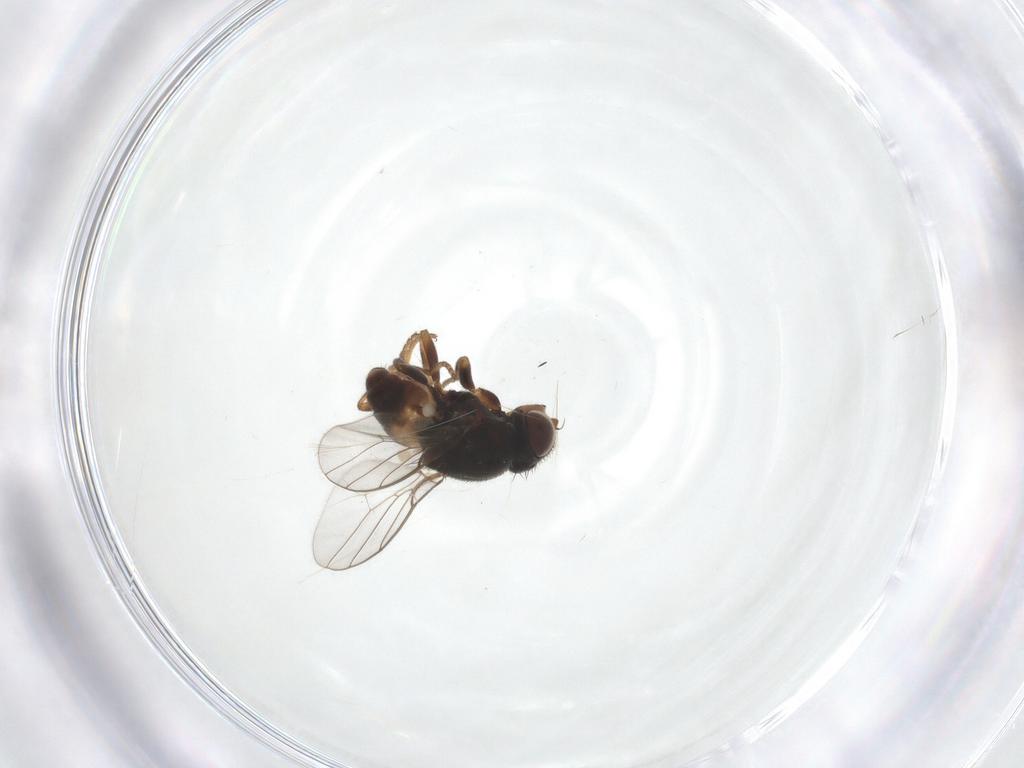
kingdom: Animalia
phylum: Arthropoda
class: Insecta
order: Diptera
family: Chloropidae
